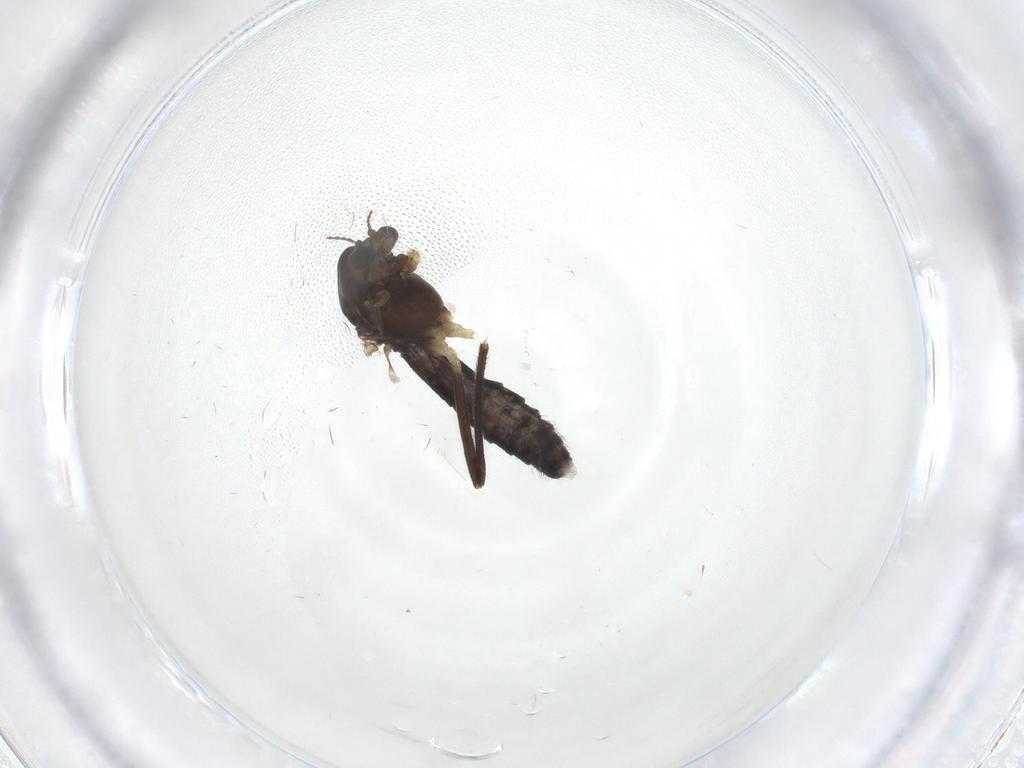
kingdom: Animalia
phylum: Arthropoda
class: Insecta
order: Diptera
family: Chironomidae
